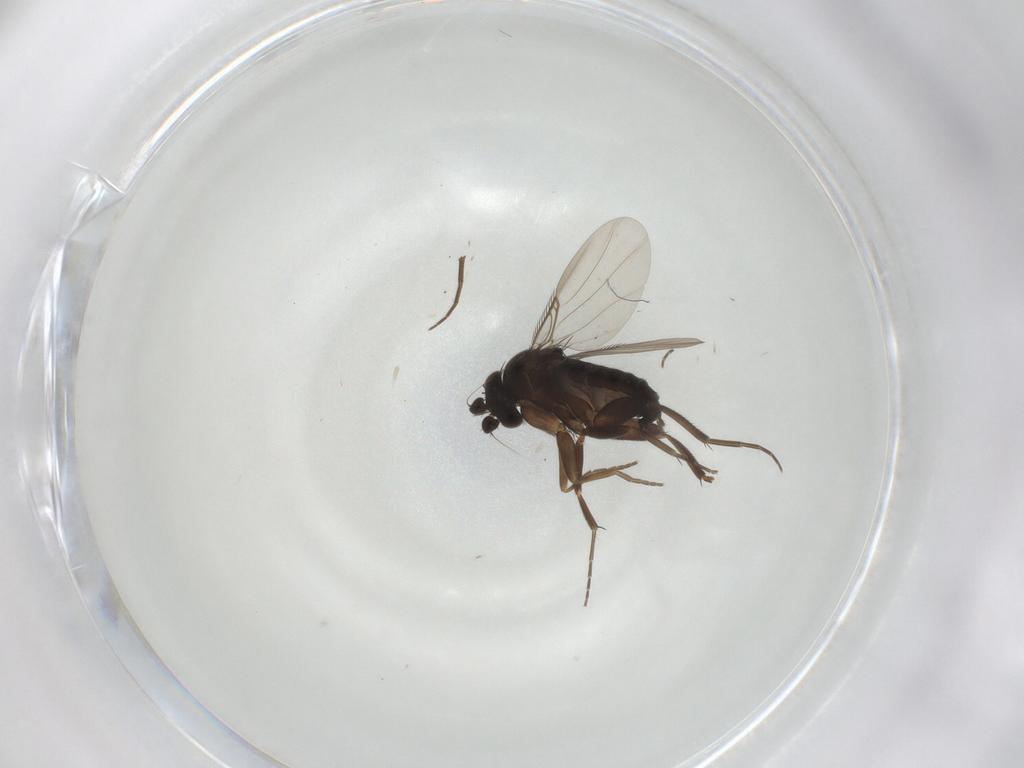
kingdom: Animalia
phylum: Arthropoda
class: Insecta
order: Coleoptera
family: Chrysomelidae
